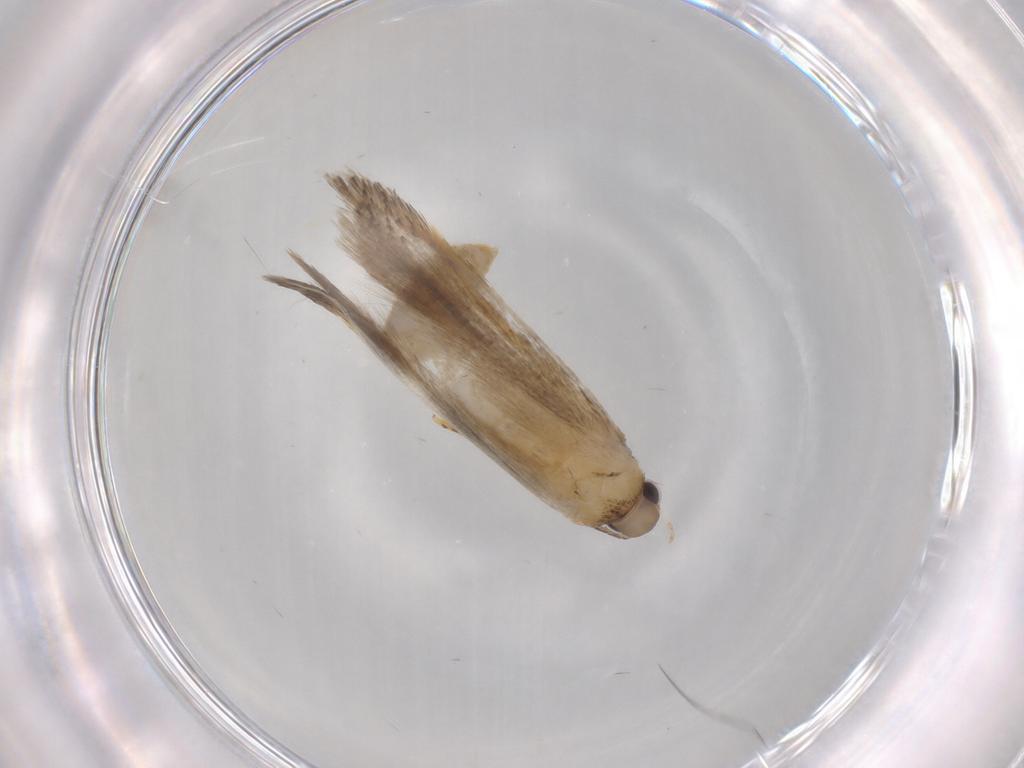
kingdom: Animalia
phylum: Arthropoda
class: Insecta
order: Lepidoptera
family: Autostichidae
